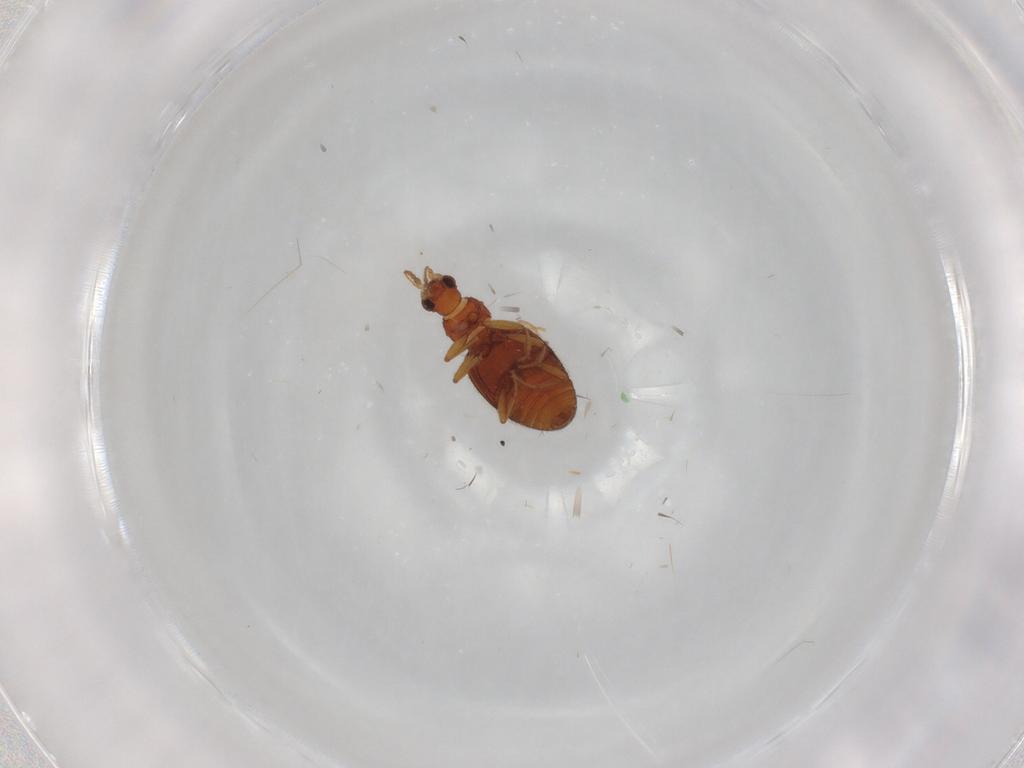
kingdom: Animalia
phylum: Arthropoda
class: Insecta
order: Coleoptera
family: Latridiidae
